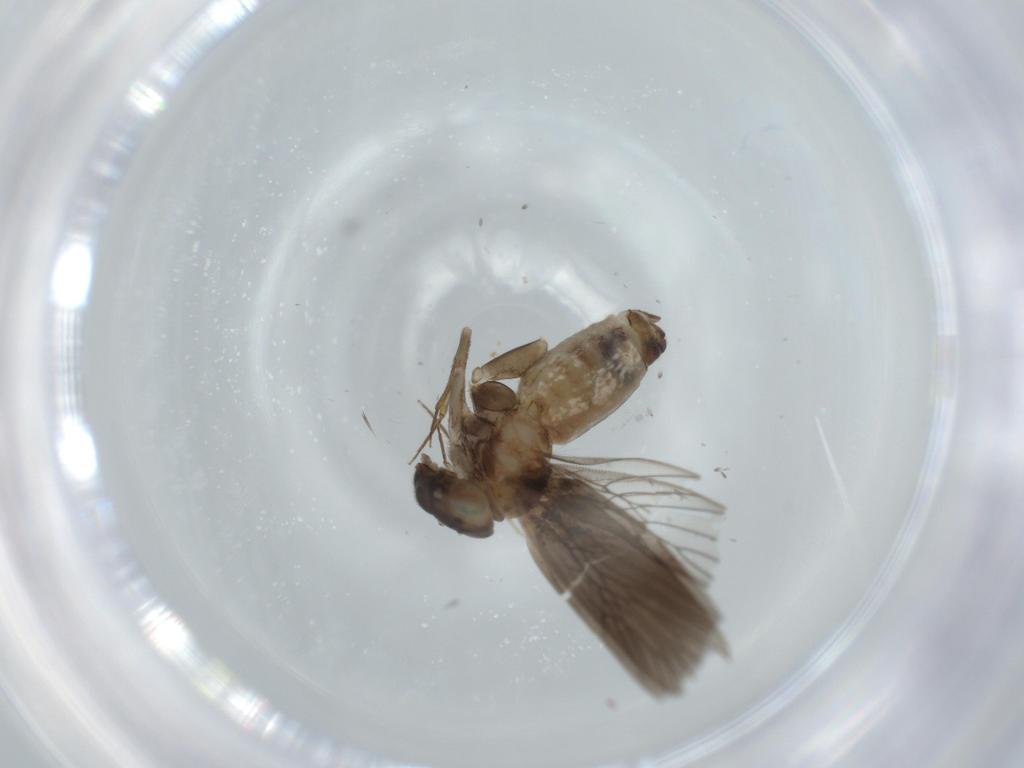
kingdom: Animalia
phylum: Arthropoda
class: Insecta
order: Psocodea
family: Lepidopsocidae
